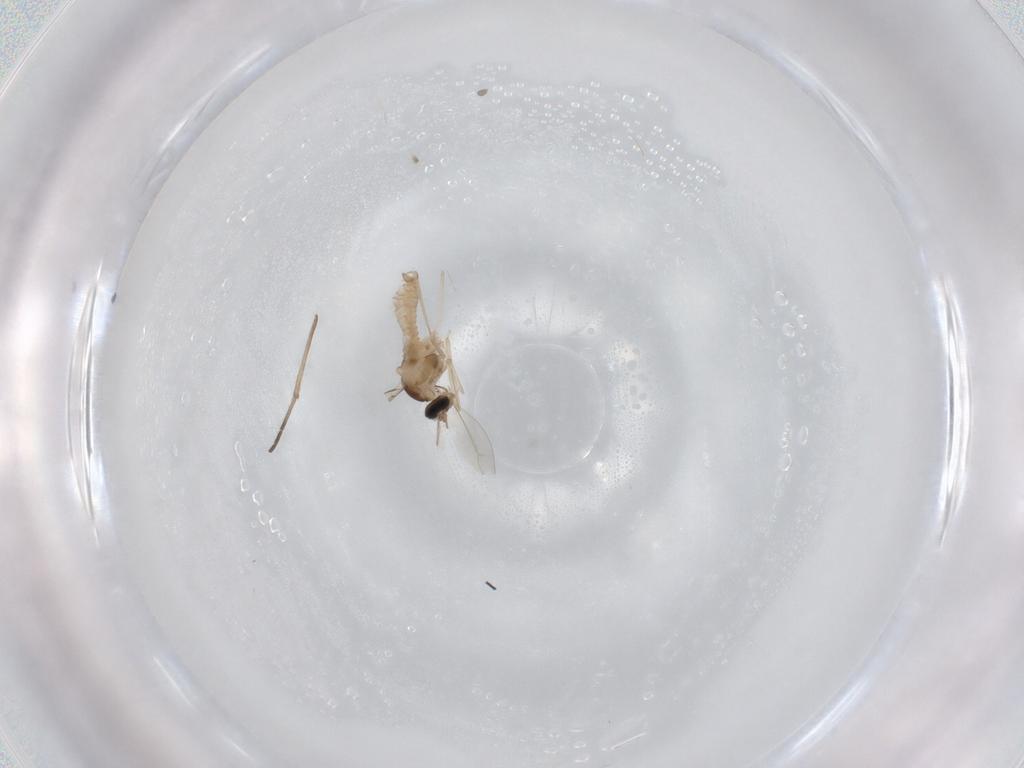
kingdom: Animalia
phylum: Arthropoda
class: Insecta
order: Diptera
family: Cecidomyiidae
